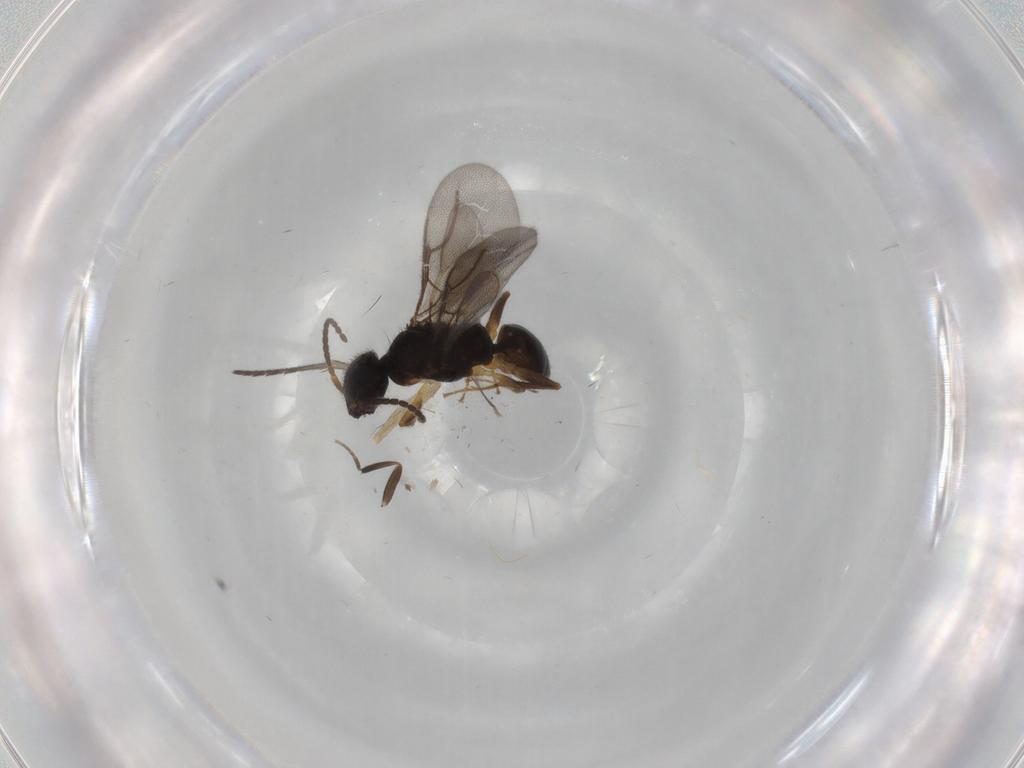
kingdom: Animalia
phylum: Arthropoda
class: Insecta
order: Hymenoptera
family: Bethylidae
